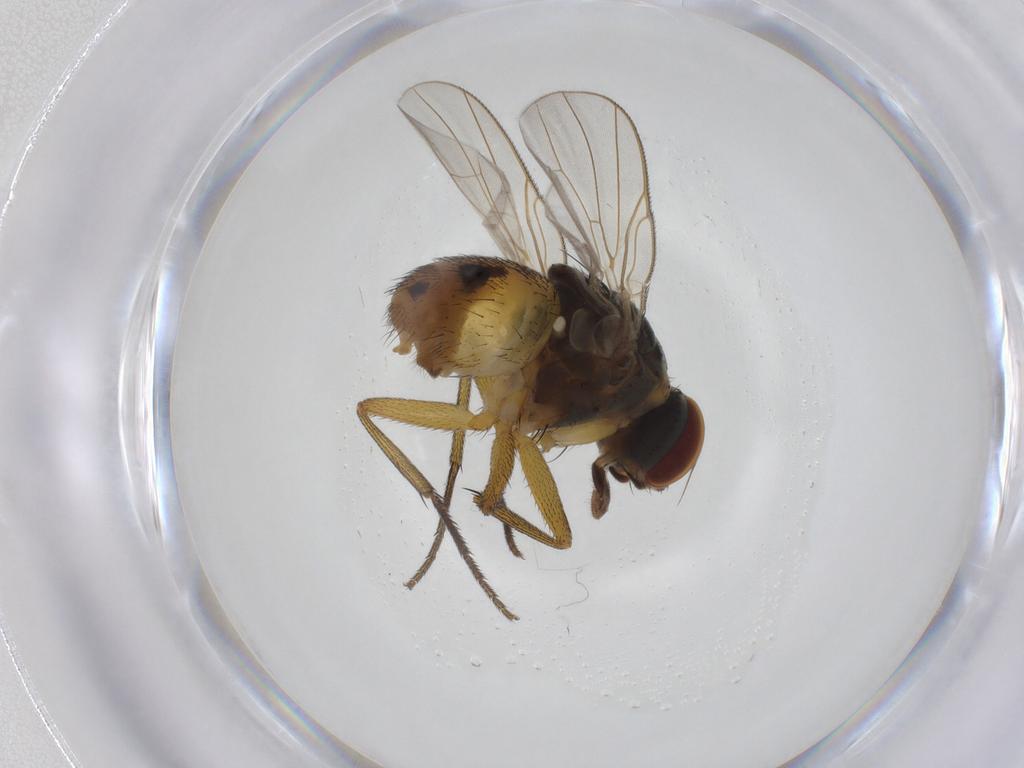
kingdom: Animalia
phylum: Arthropoda
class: Insecta
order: Diptera
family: Muscidae
